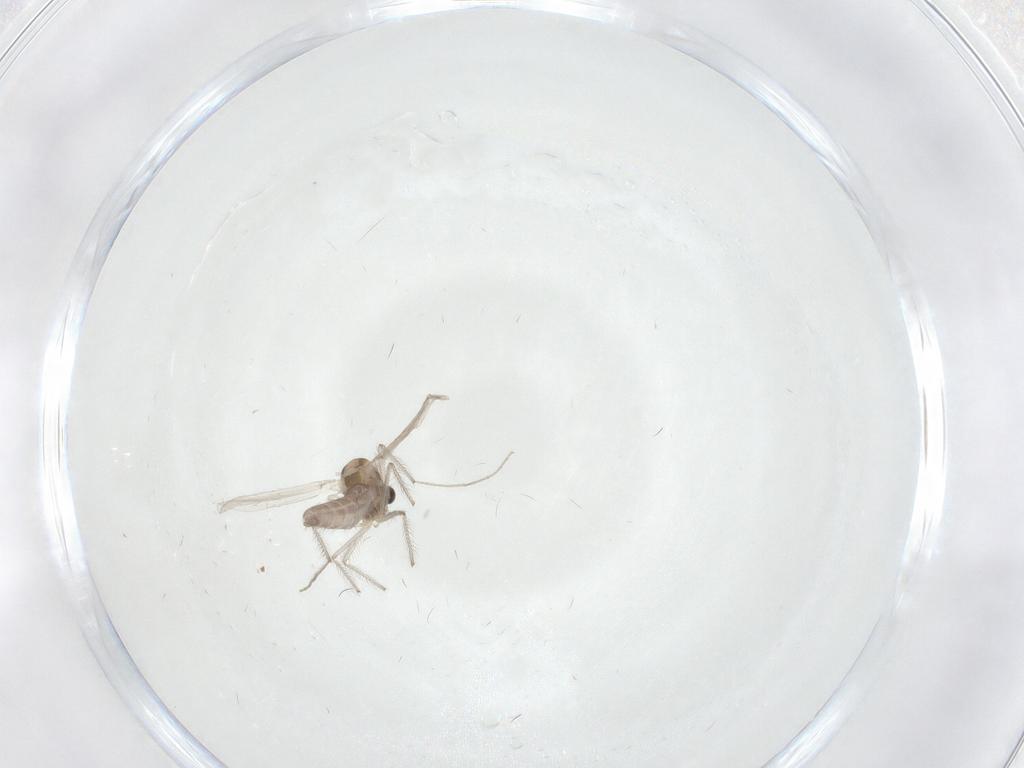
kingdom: Animalia
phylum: Arthropoda
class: Insecta
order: Diptera
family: Chironomidae
